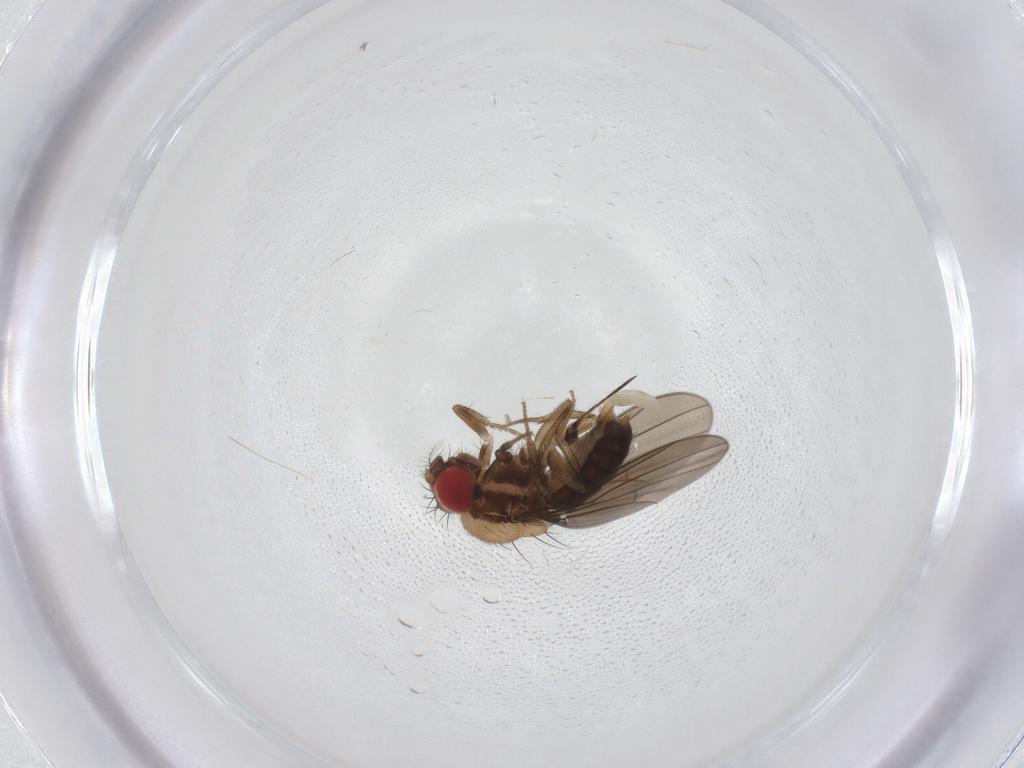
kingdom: Animalia
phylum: Arthropoda
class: Insecta
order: Diptera
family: Drosophilidae
